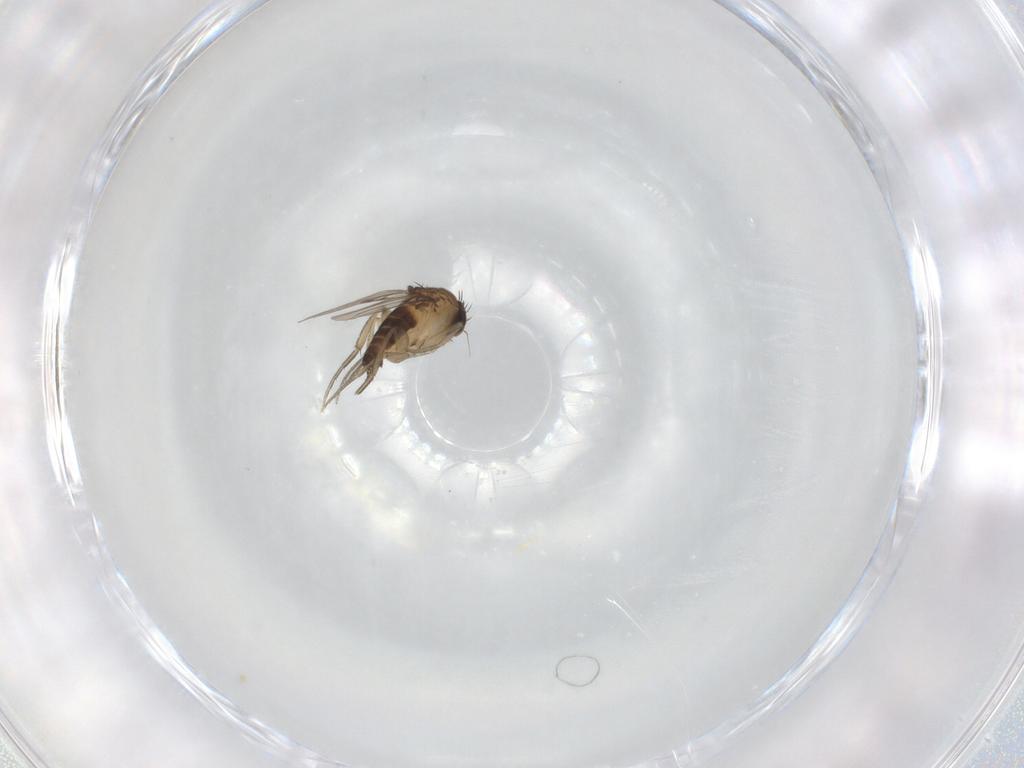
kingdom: Animalia
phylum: Arthropoda
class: Insecta
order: Diptera
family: Phoridae
